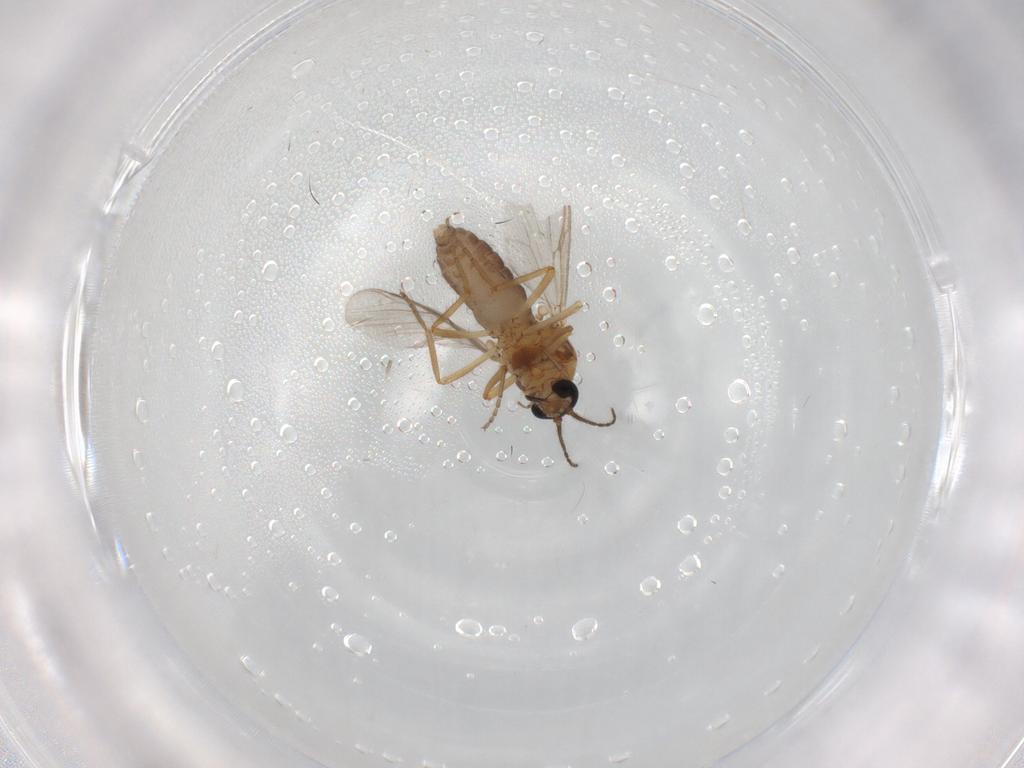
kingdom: Animalia
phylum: Arthropoda
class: Insecta
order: Diptera
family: Ceratopogonidae
